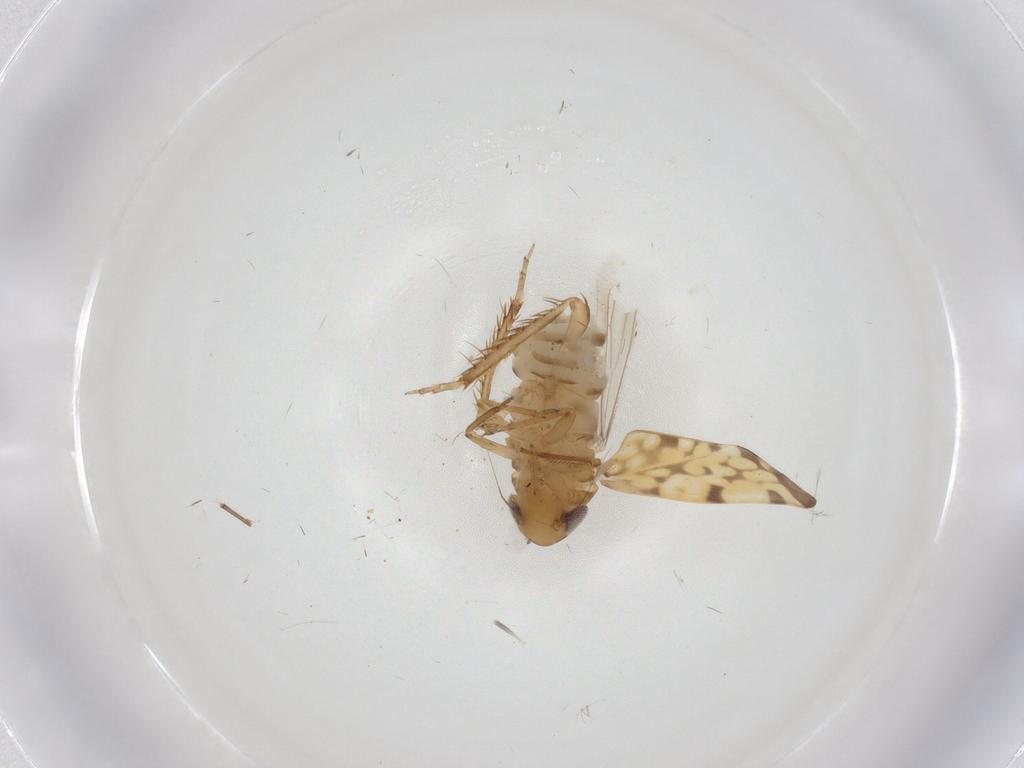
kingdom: Animalia
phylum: Arthropoda
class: Insecta
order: Hemiptera
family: Cicadellidae
